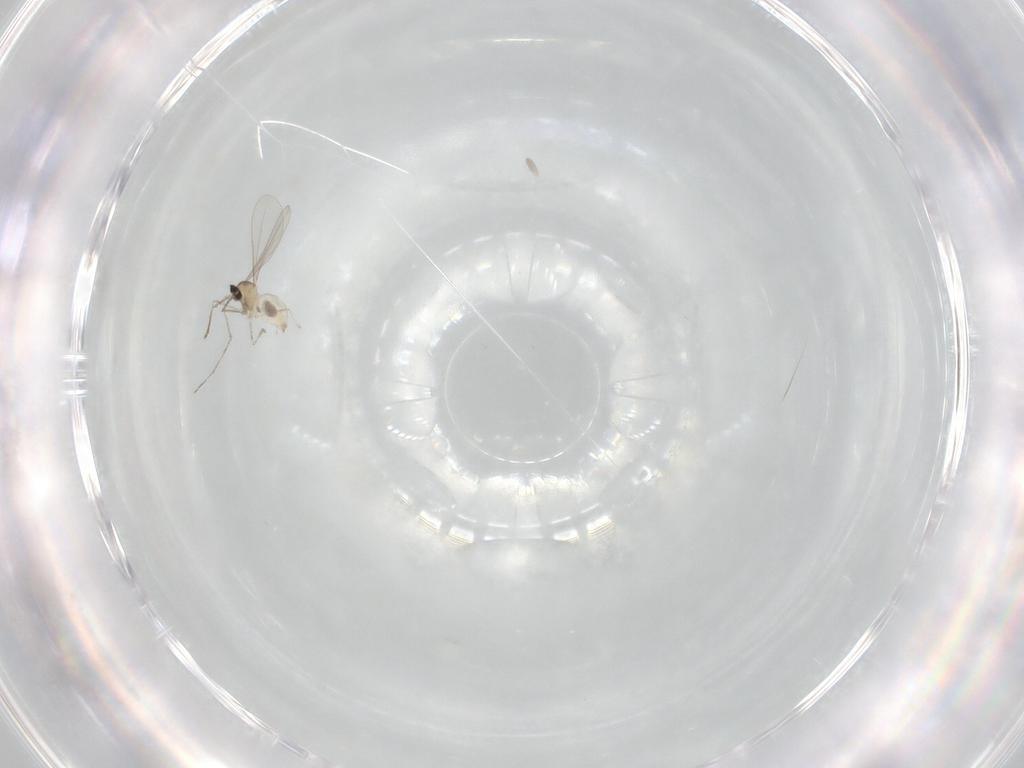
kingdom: Animalia
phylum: Arthropoda
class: Insecta
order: Diptera
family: Cecidomyiidae
